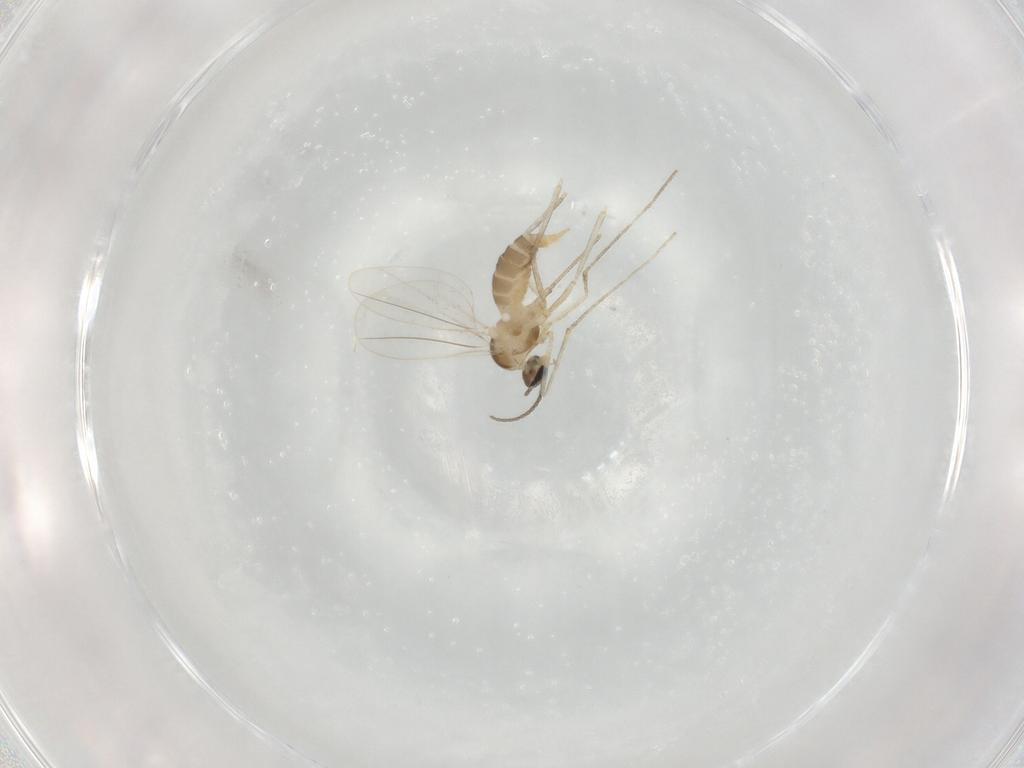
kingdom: Animalia
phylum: Arthropoda
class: Insecta
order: Diptera
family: Cecidomyiidae
